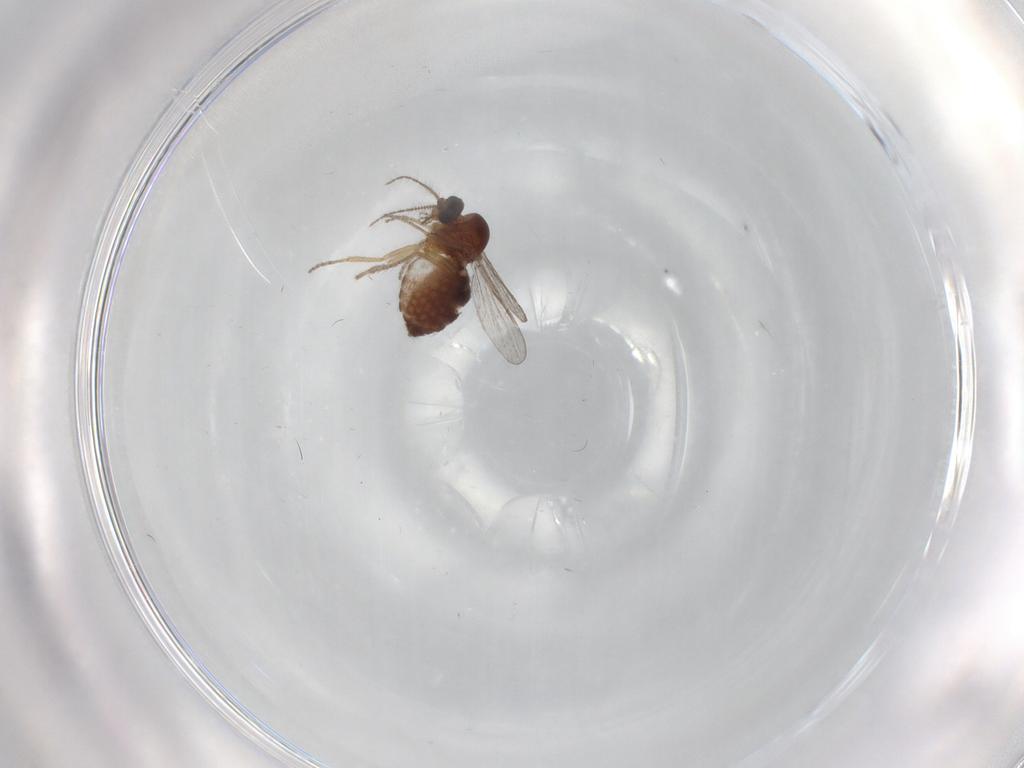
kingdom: Animalia
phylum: Arthropoda
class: Insecta
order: Diptera
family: Ceratopogonidae
